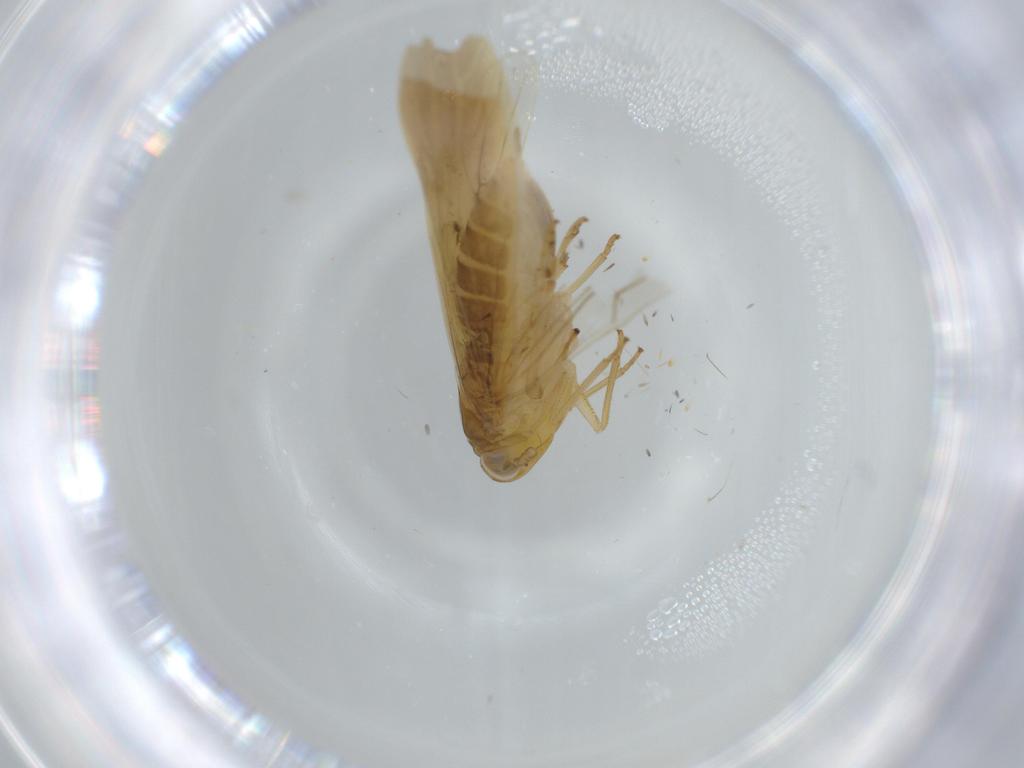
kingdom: Animalia
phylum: Arthropoda
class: Insecta
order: Hemiptera
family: Delphacidae
